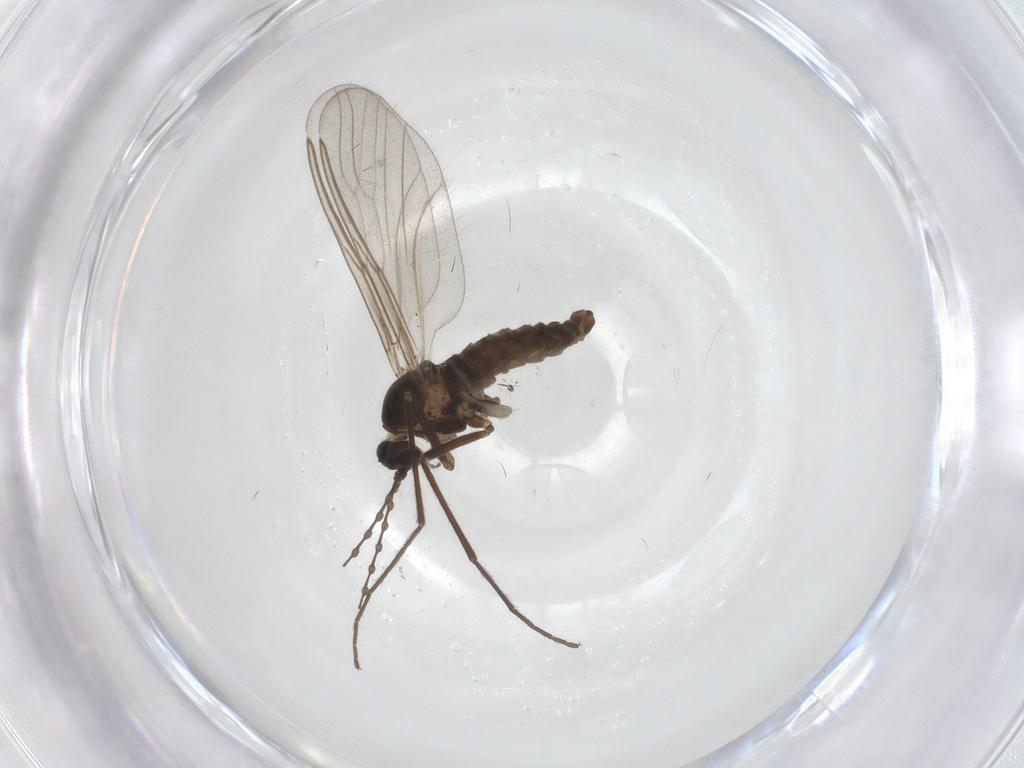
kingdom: Animalia
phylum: Arthropoda
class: Insecta
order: Diptera
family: Cecidomyiidae
